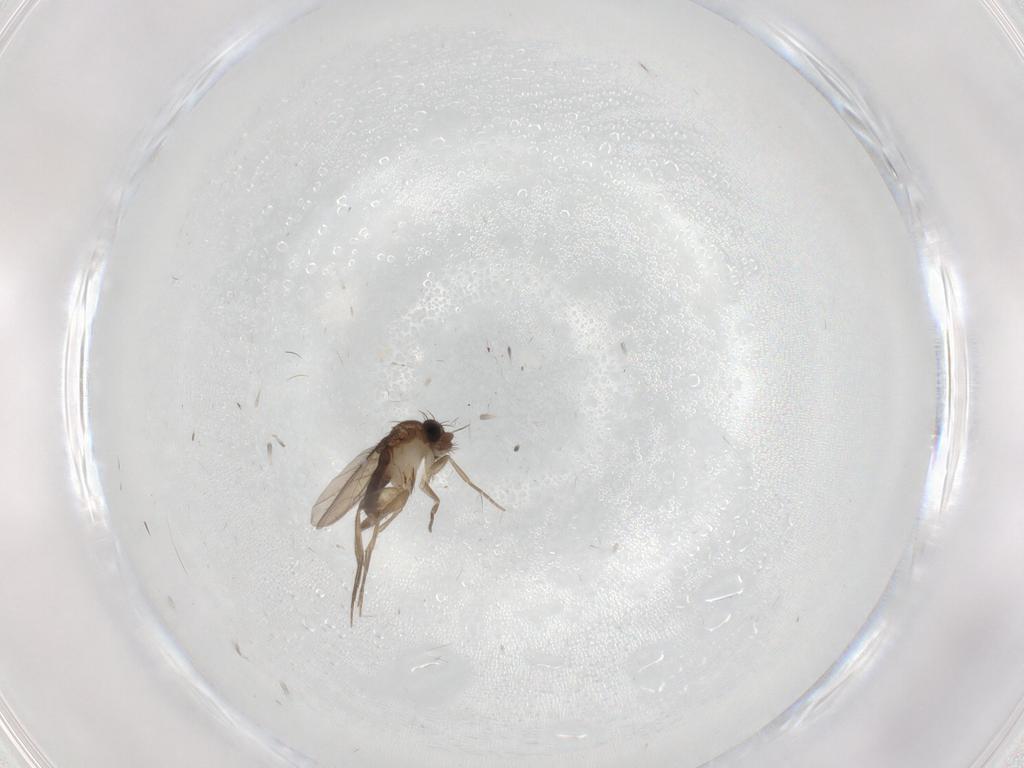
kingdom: Animalia
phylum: Arthropoda
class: Insecta
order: Diptera
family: Phoridae
